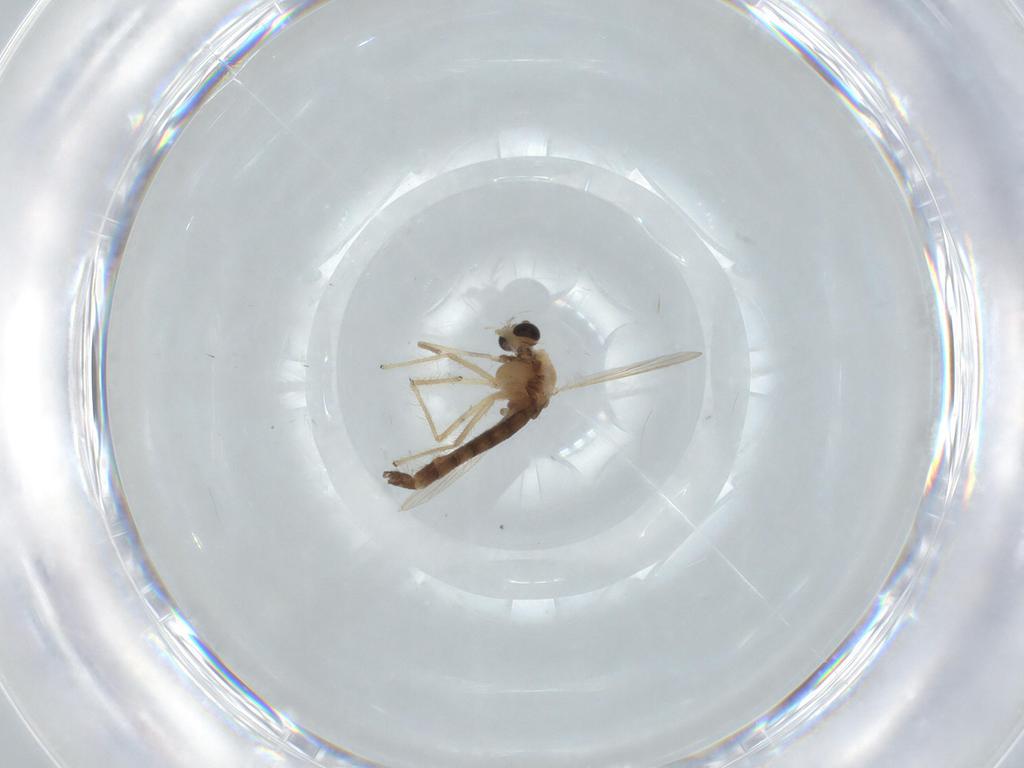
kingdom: Animalia
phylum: Arthropoda
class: Insecta
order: Diptera
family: Chironomidae
